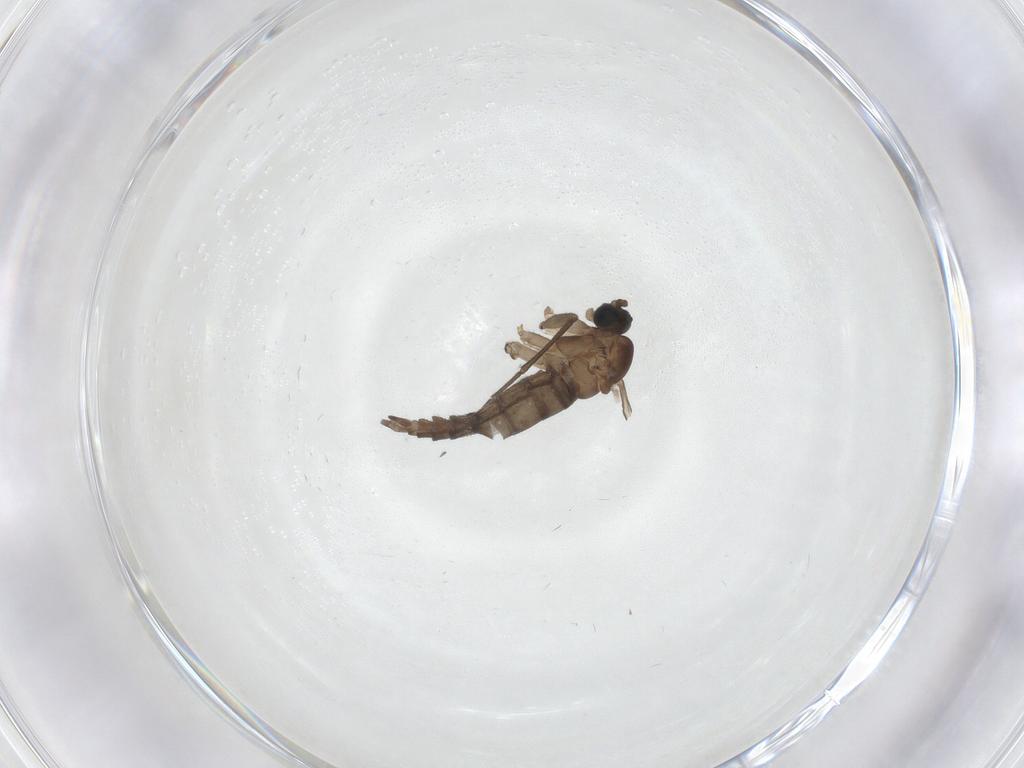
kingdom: Animalia
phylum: Arthropoda
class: Insecta
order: Diptera
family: Sciaridae
